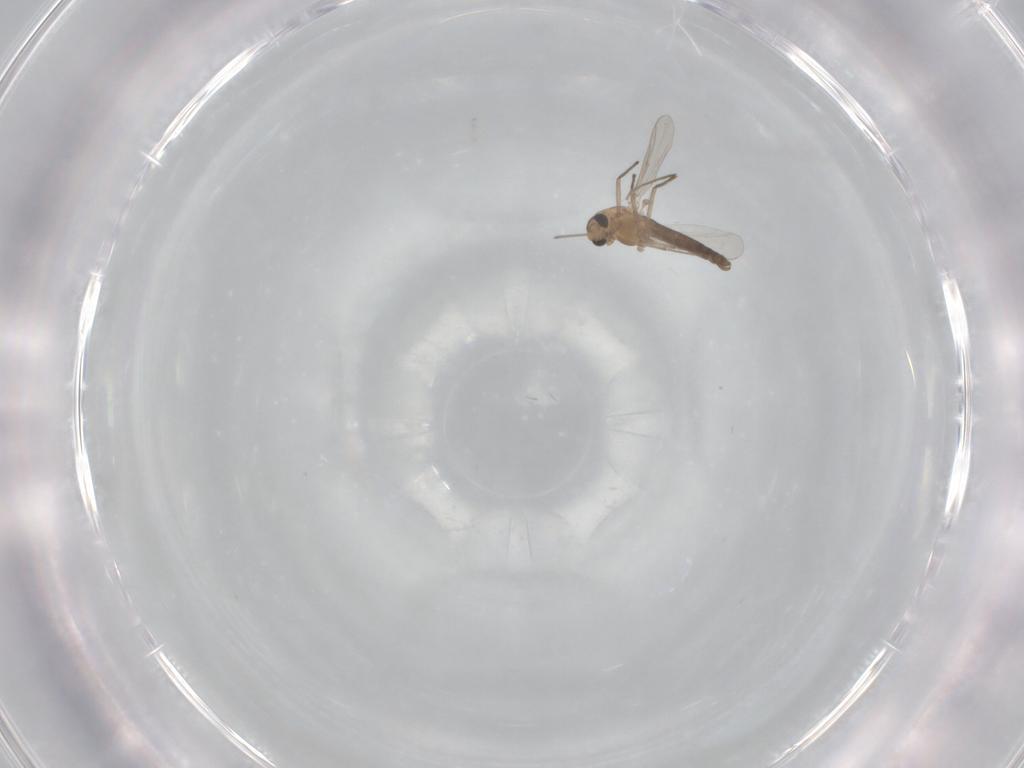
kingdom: Animalia
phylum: Arthropoda
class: Insecta
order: Diptera
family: Chironomidae
